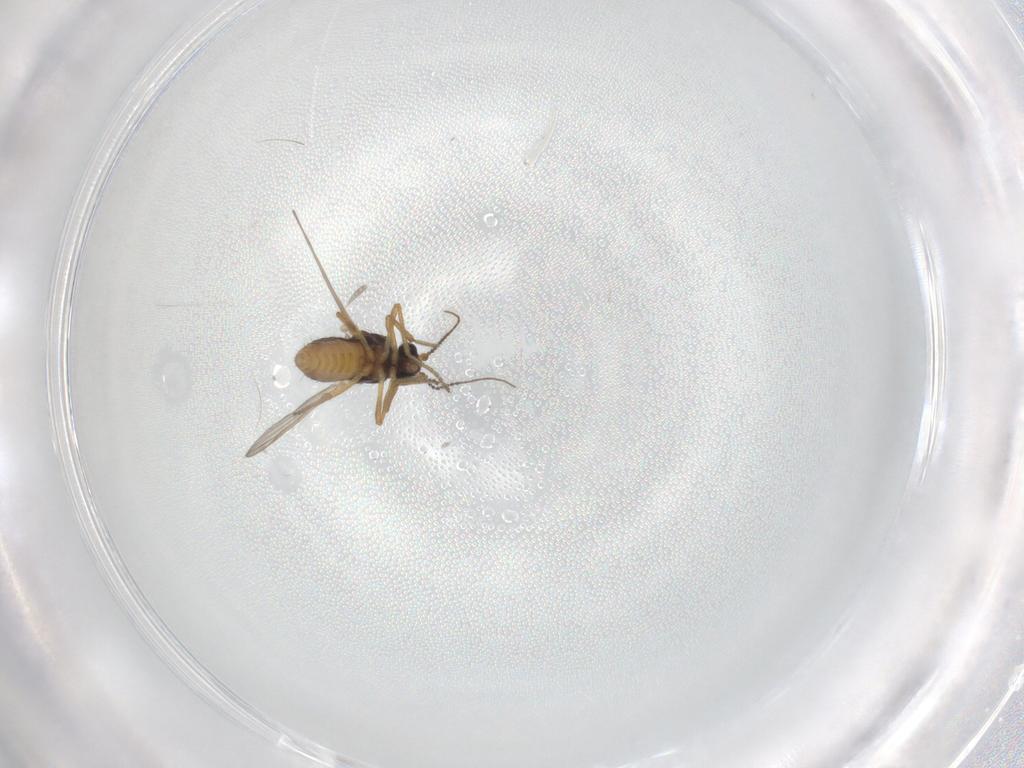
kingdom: Animalia
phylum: Arthropoda
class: Insecta
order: Diptera
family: Ceratopogonidae
